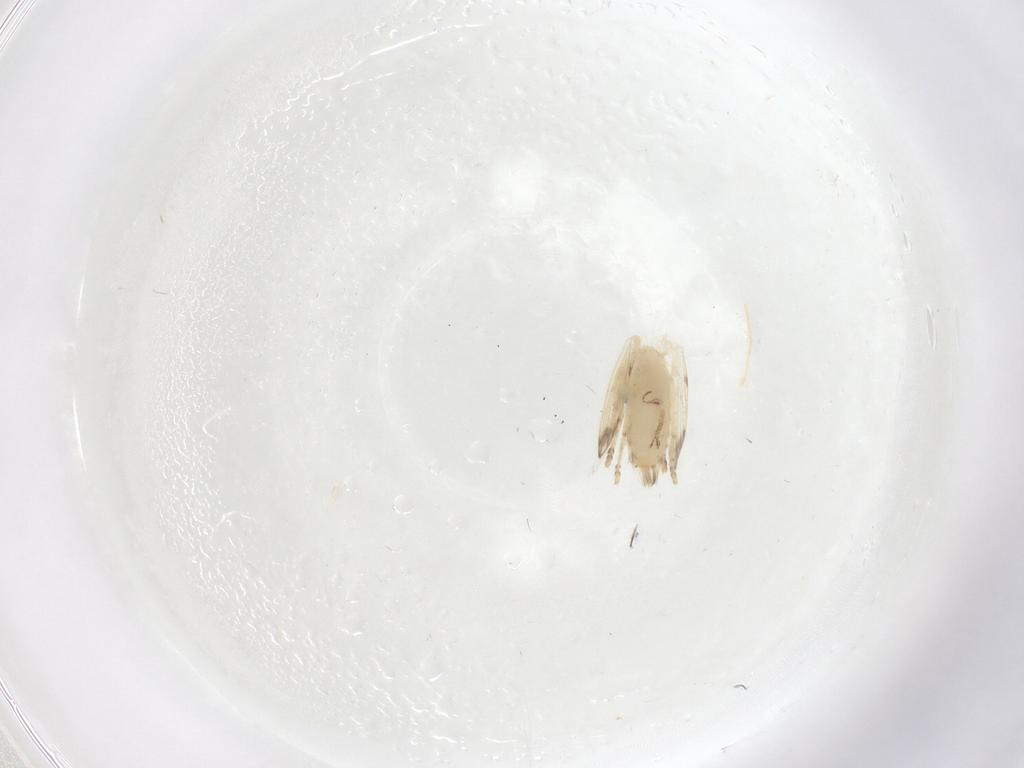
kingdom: Animalia
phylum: Arthropoda
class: Insecta
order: Diptera
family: Psychodidae
